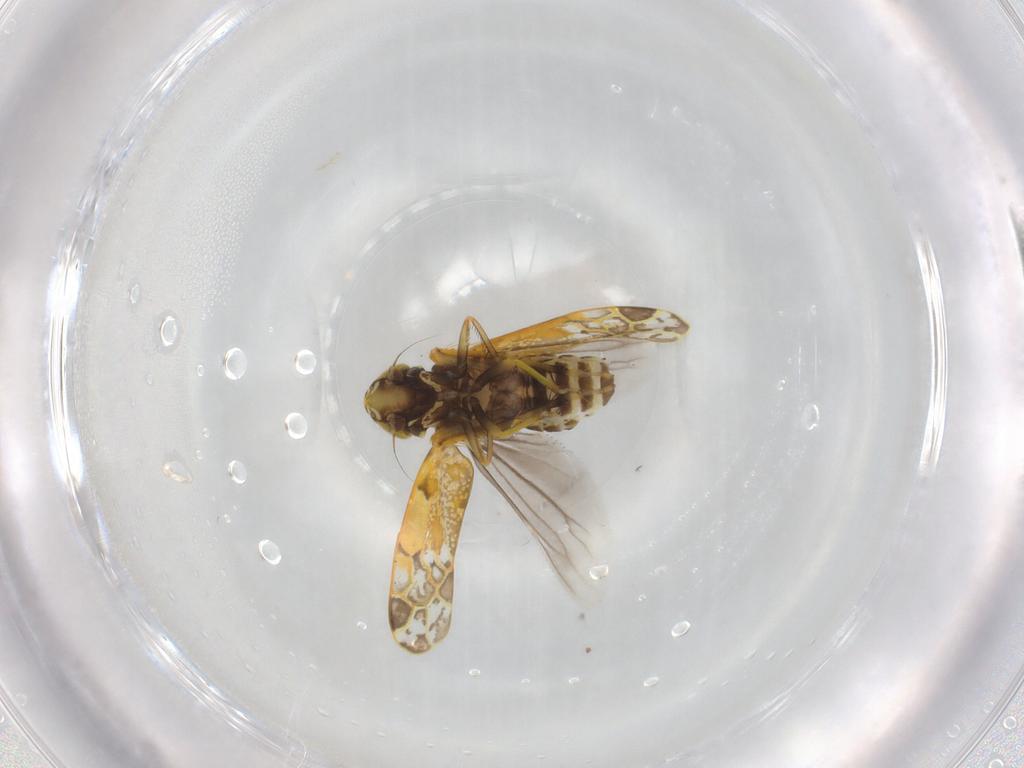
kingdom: Animalia
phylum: Arthropoda
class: Insecta
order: Hemiptera
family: Cicadellidae
